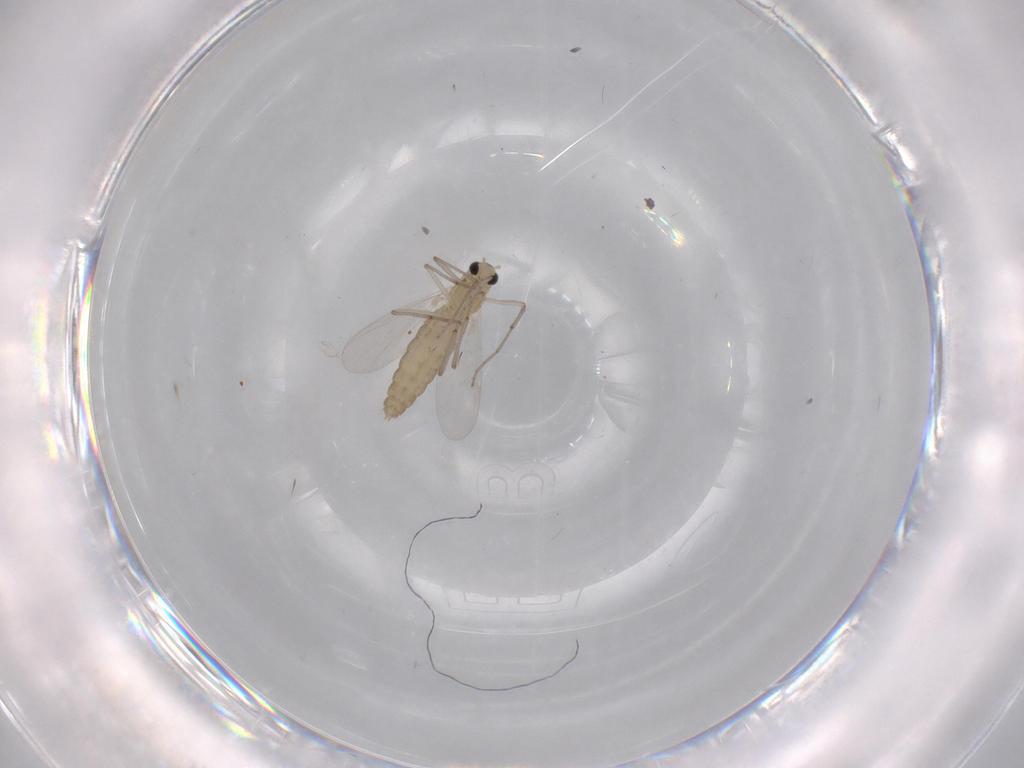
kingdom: Animalia
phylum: Arthropoda
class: Insecta
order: Diptera
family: Chironomidae
